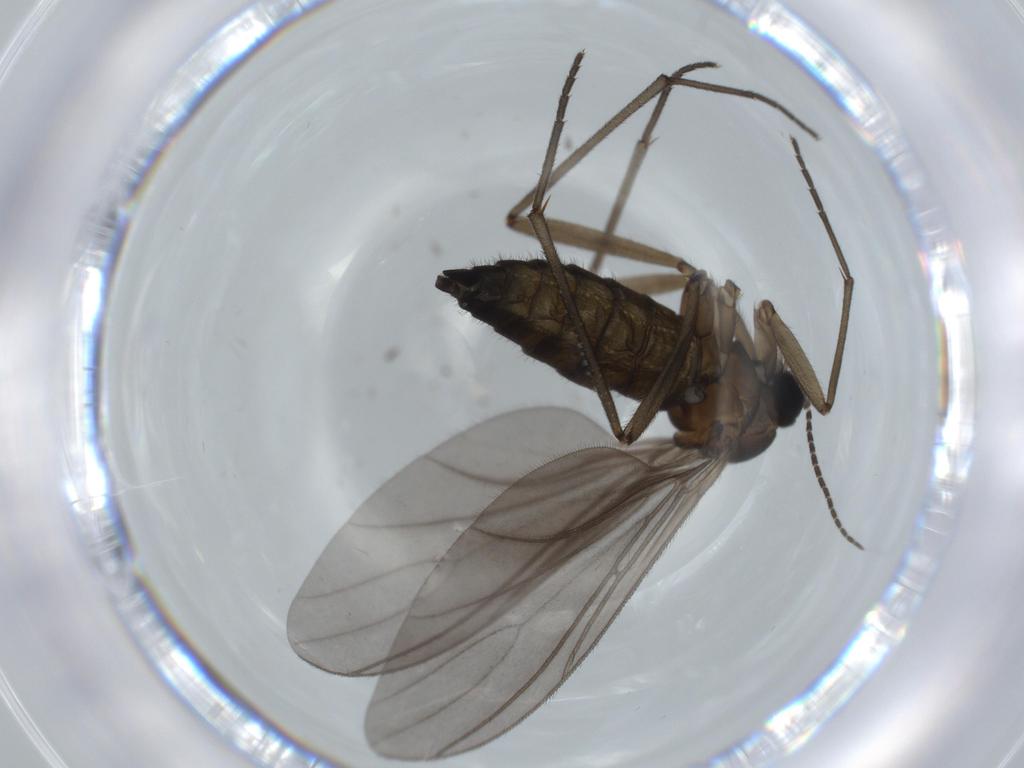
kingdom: Animalia
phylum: Arthropoda
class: Insecta
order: Diptera
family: Sciaridae
